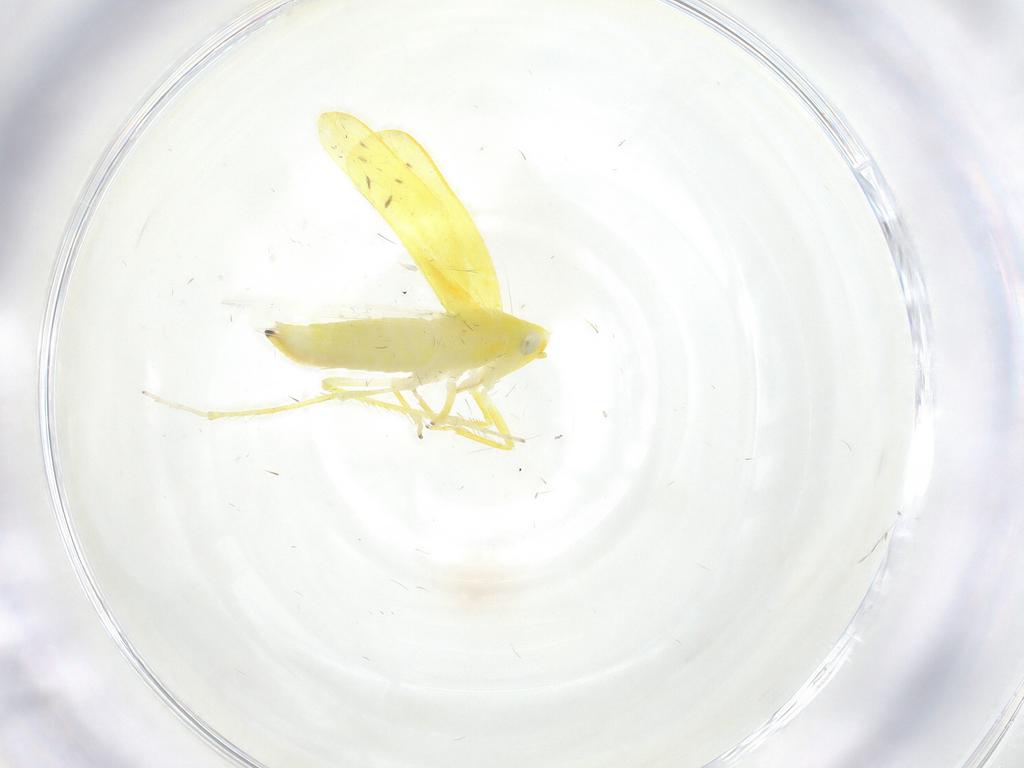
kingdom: Animalia
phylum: Arthropoda
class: Insecta
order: Hemiptera
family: Cicadellidae
